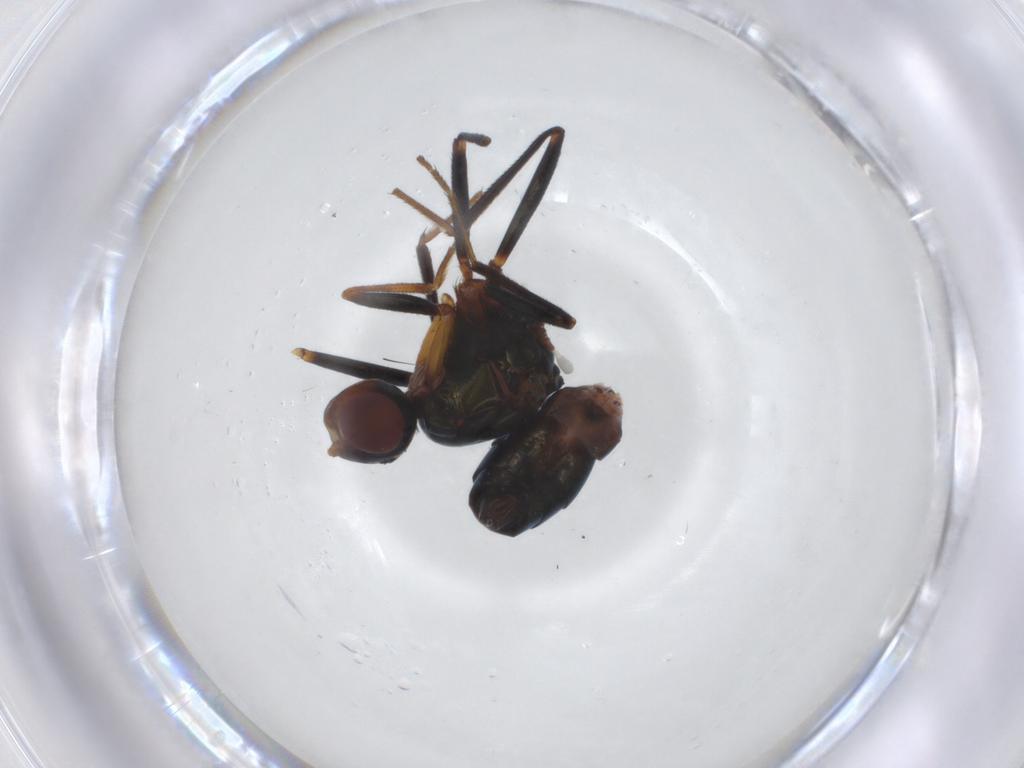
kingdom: Animalia
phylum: Arthropoda
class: Insecta
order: Diptera
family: Sepsidae
